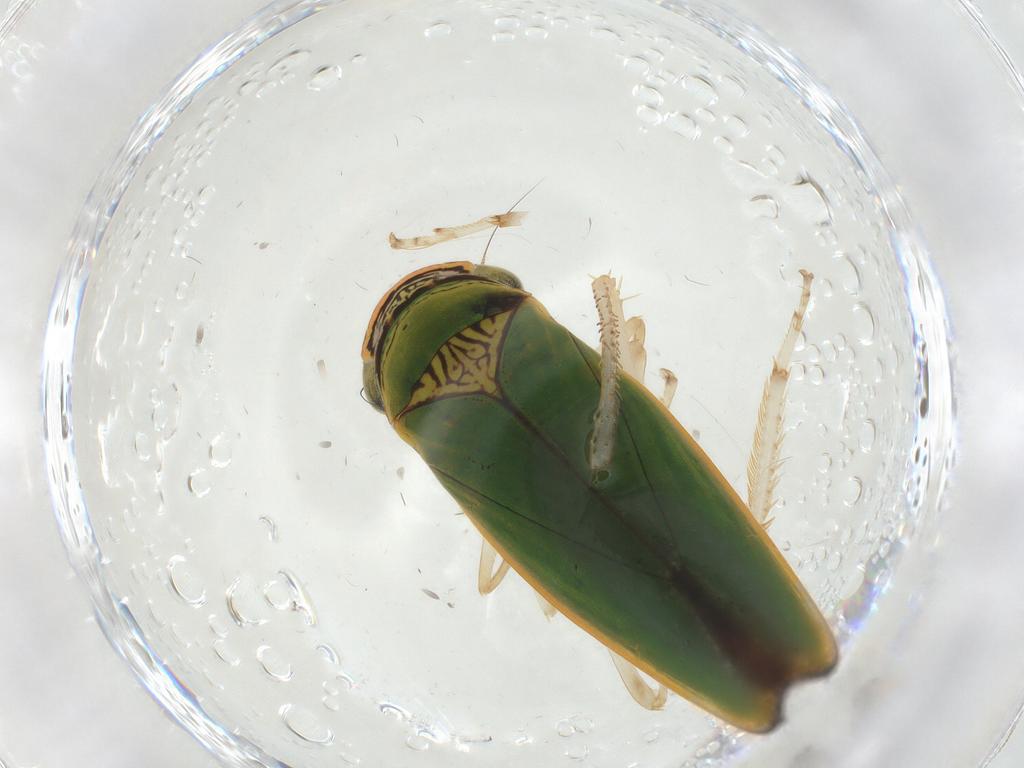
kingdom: Animalia
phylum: Arthropoda
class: Insecta
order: Hemiptera
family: Cicadellidae
